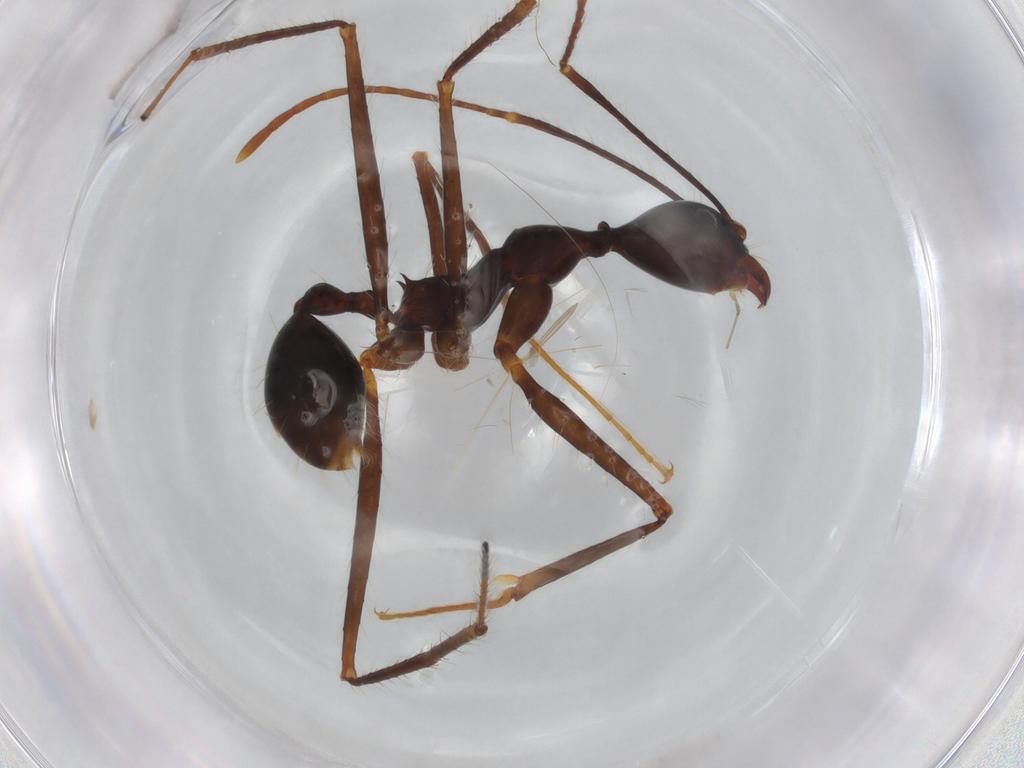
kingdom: Animalia
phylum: Arthropoda
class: Insecta
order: Hymenoptera
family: Formicidae
